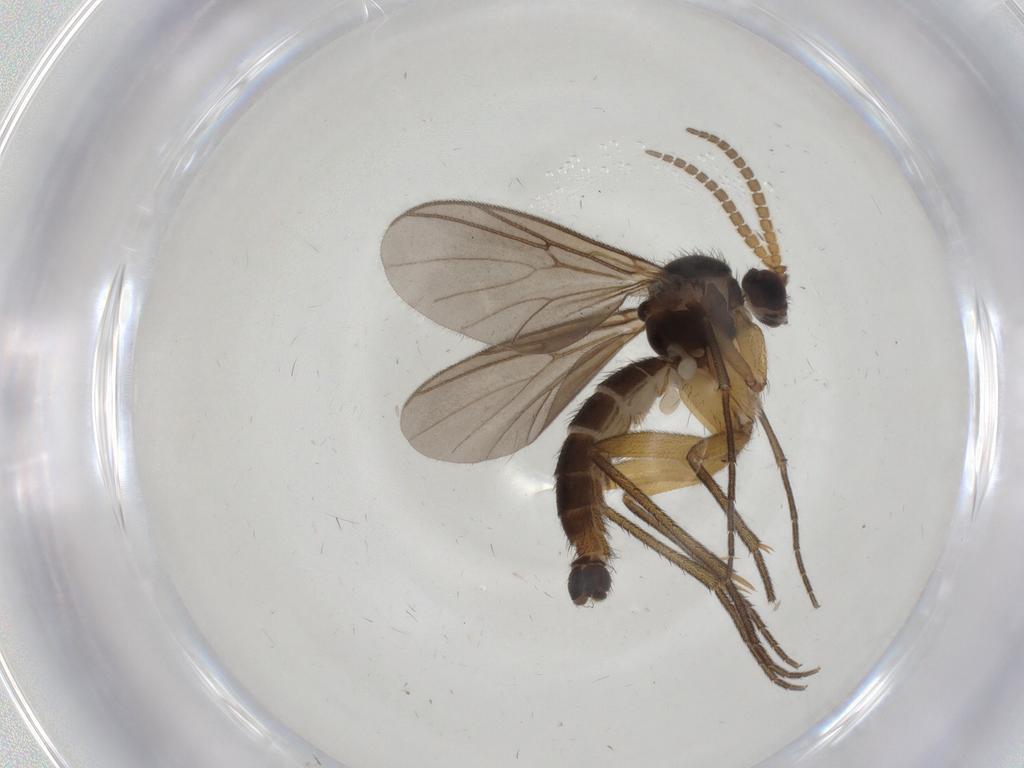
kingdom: Animalia
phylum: Arthropoda
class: Insecta
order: Diptera
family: Mycetophilidae
